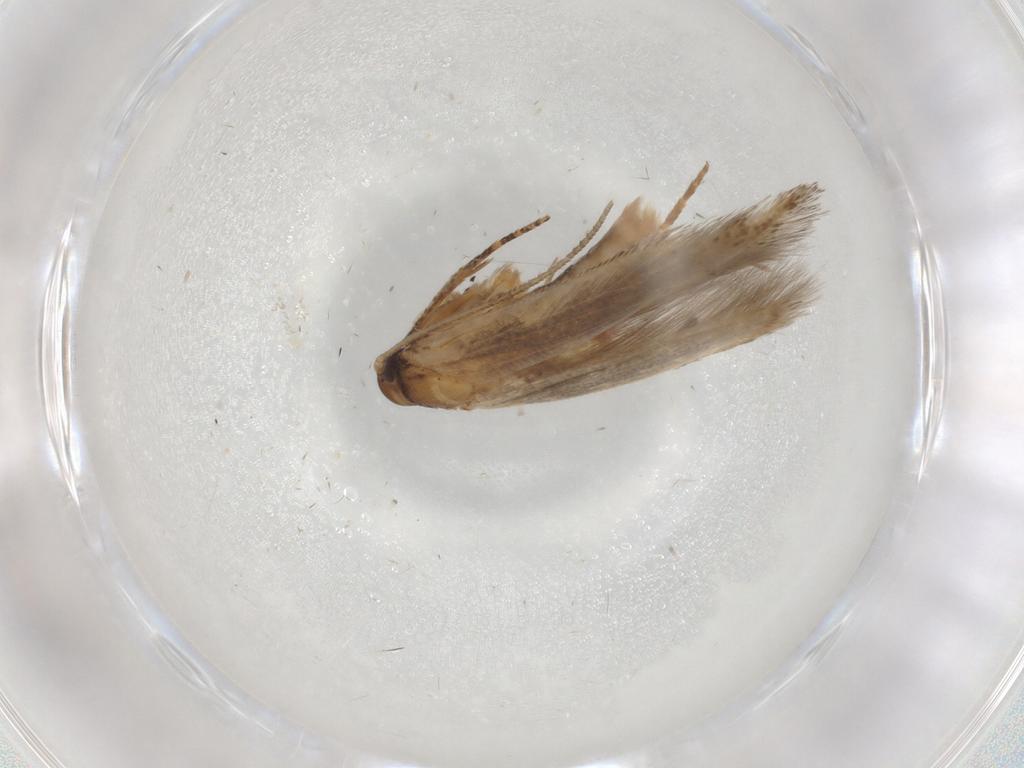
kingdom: Animalia
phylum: Arthropoda
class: Insecta
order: Lepidoptera
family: Cosmopterigidae
